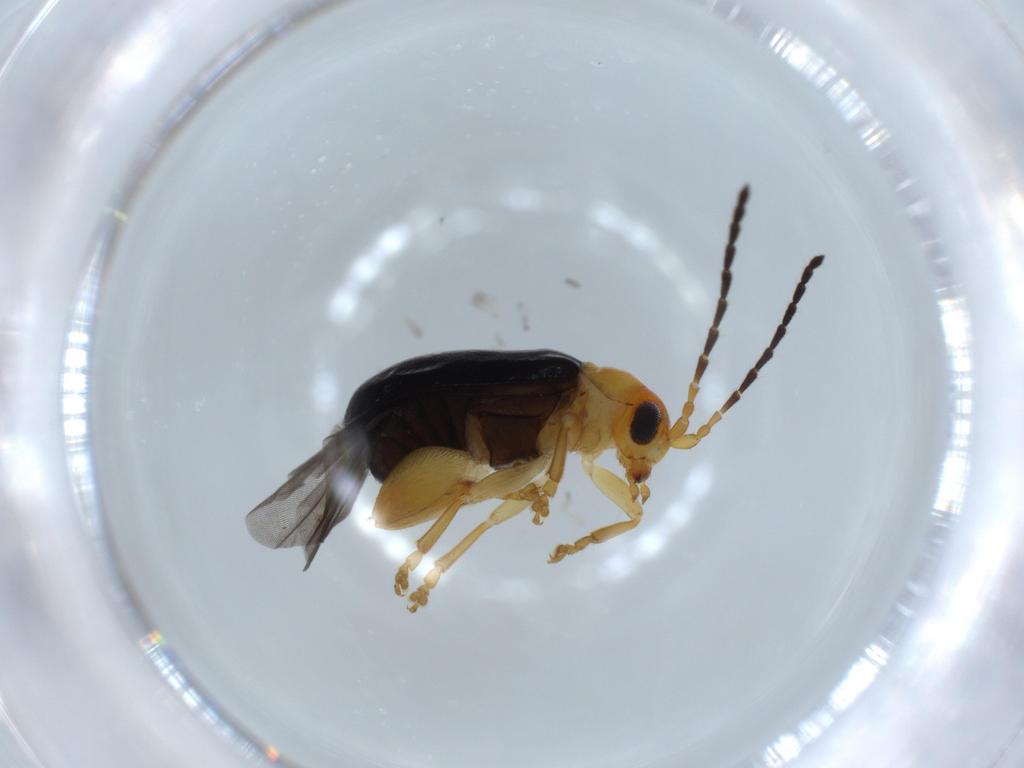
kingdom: Animalia
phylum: Arthropoda
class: Insecta
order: Coleoptera
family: Chrysomelidae
